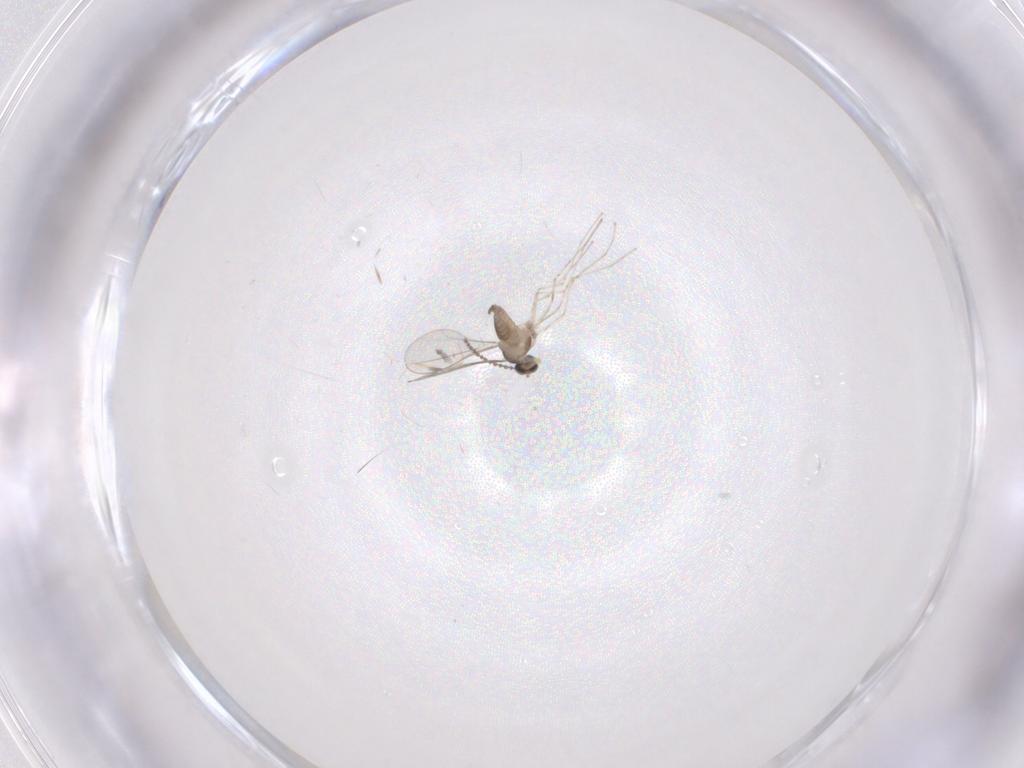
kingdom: Animalia
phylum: Arthropoda
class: Insecta
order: Diptera
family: Cecidomyiidae
